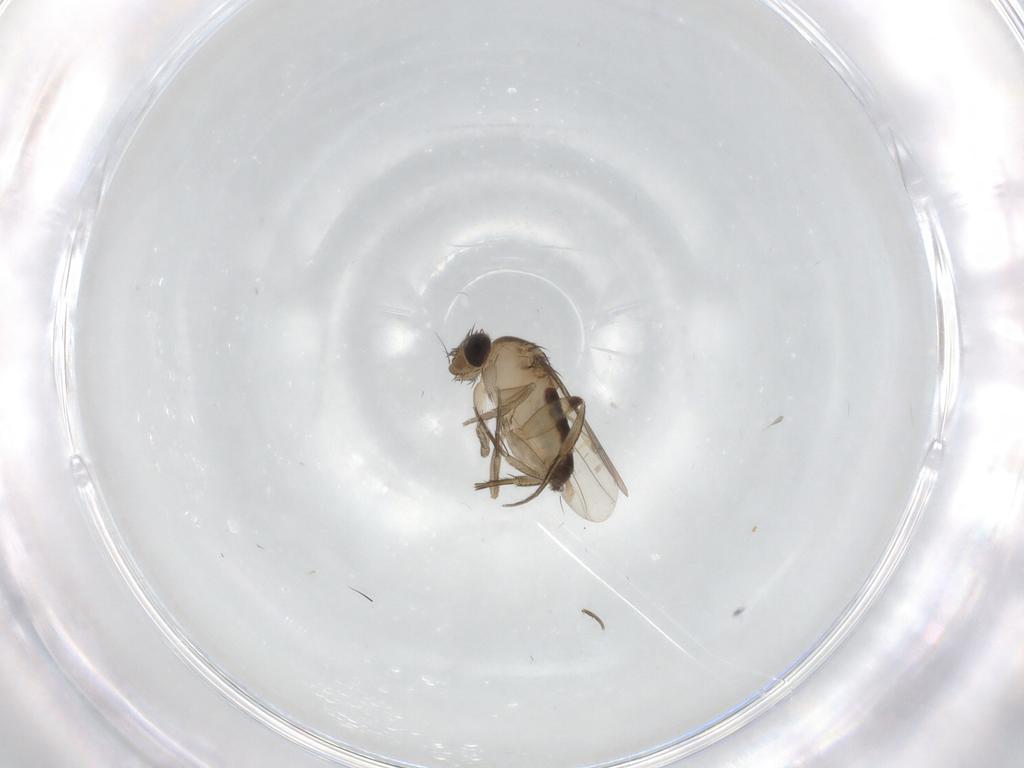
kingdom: Animalia
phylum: Arthropoda
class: Insecta
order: Diptera
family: Phoridae
